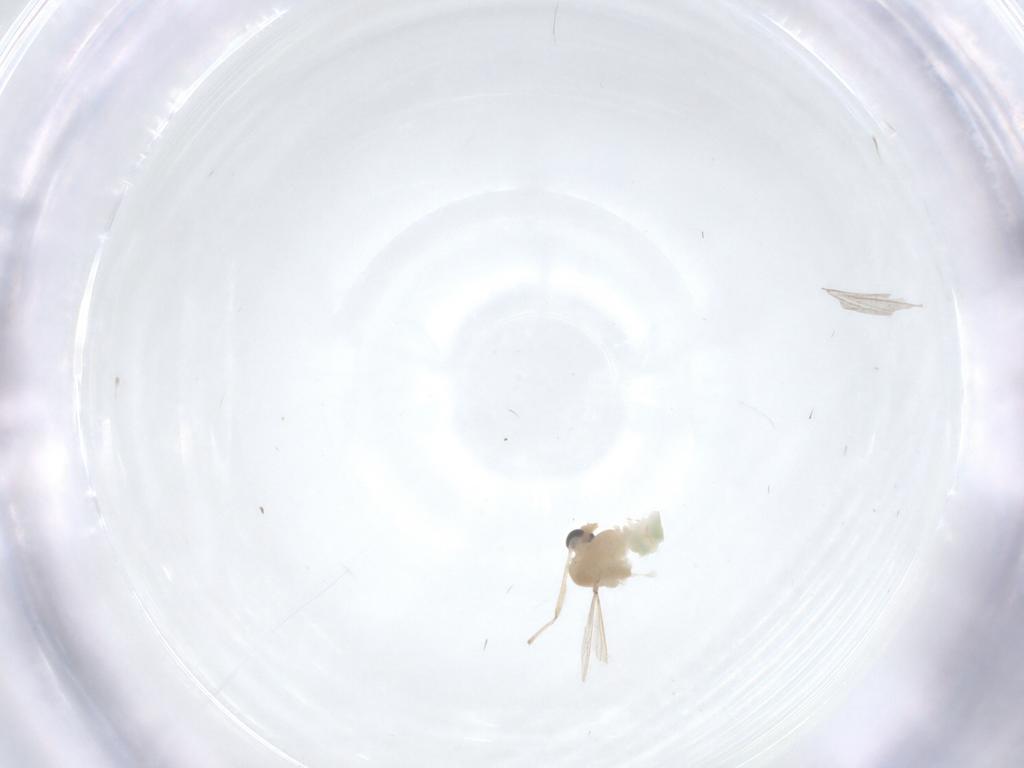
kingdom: Animalia
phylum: Arthropoda
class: Insecta
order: Diptera
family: Chironomidae
